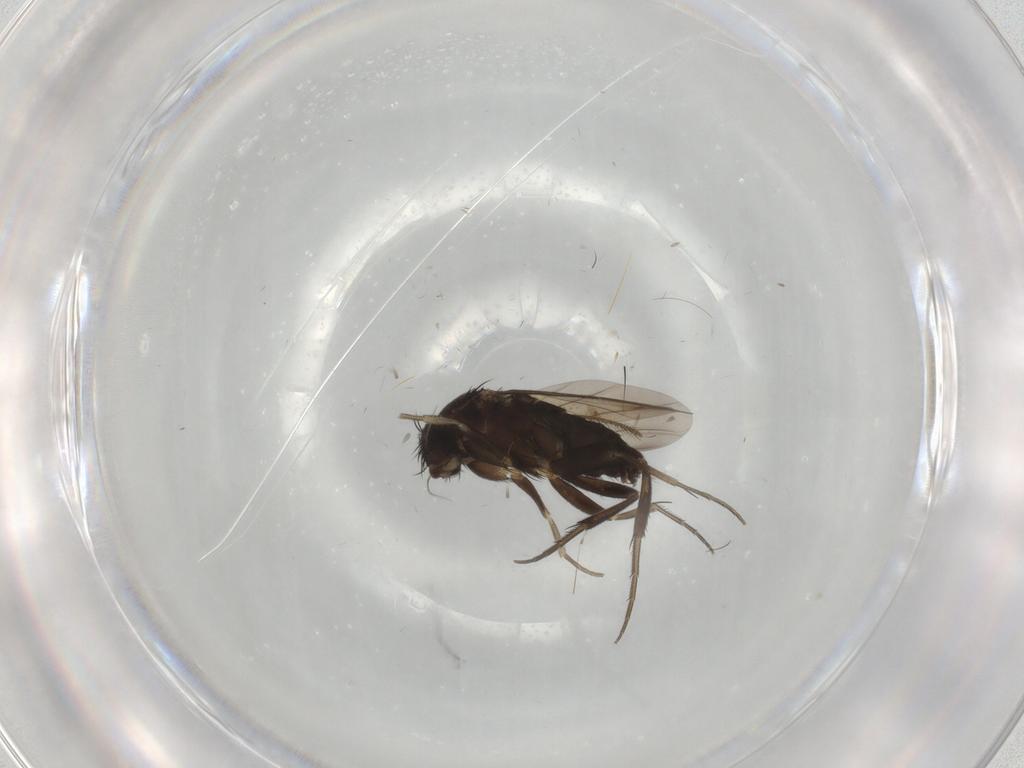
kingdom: Animalia
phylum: Arthropoda
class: Insecta
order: Diptera
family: Phoridae
